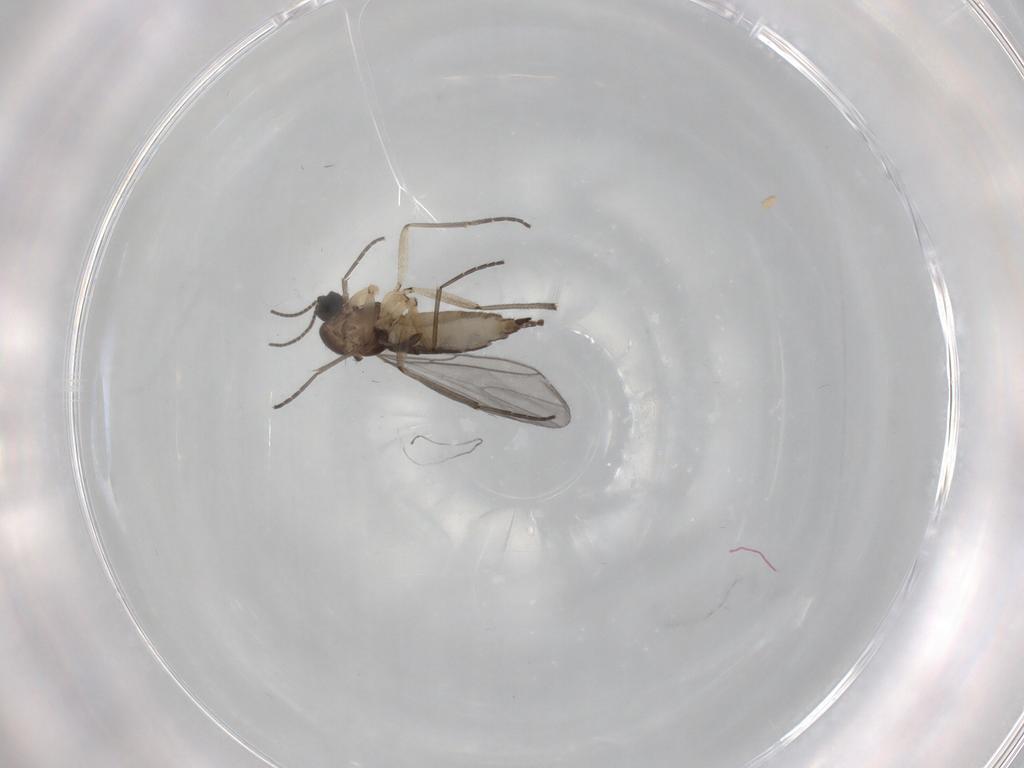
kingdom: Animalia
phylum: Arthropoda
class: Insecta
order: Diptera
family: Sciaridae
